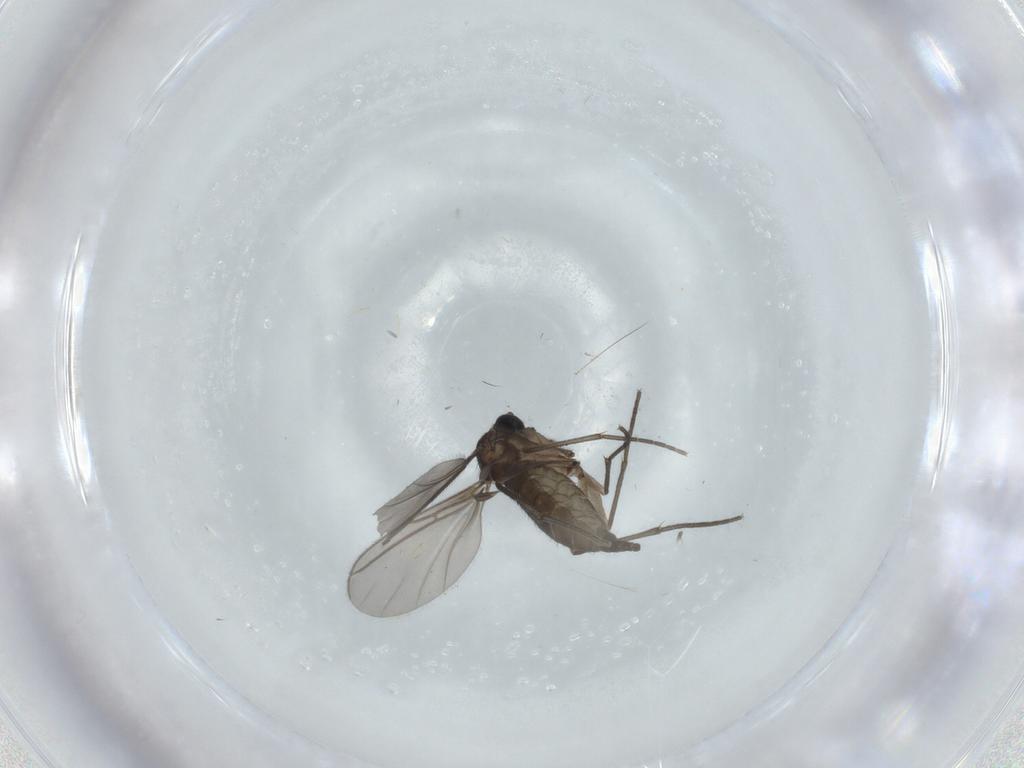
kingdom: Animalia
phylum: Arthropoda
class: Insecta
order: Diptera
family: Sciaridae
